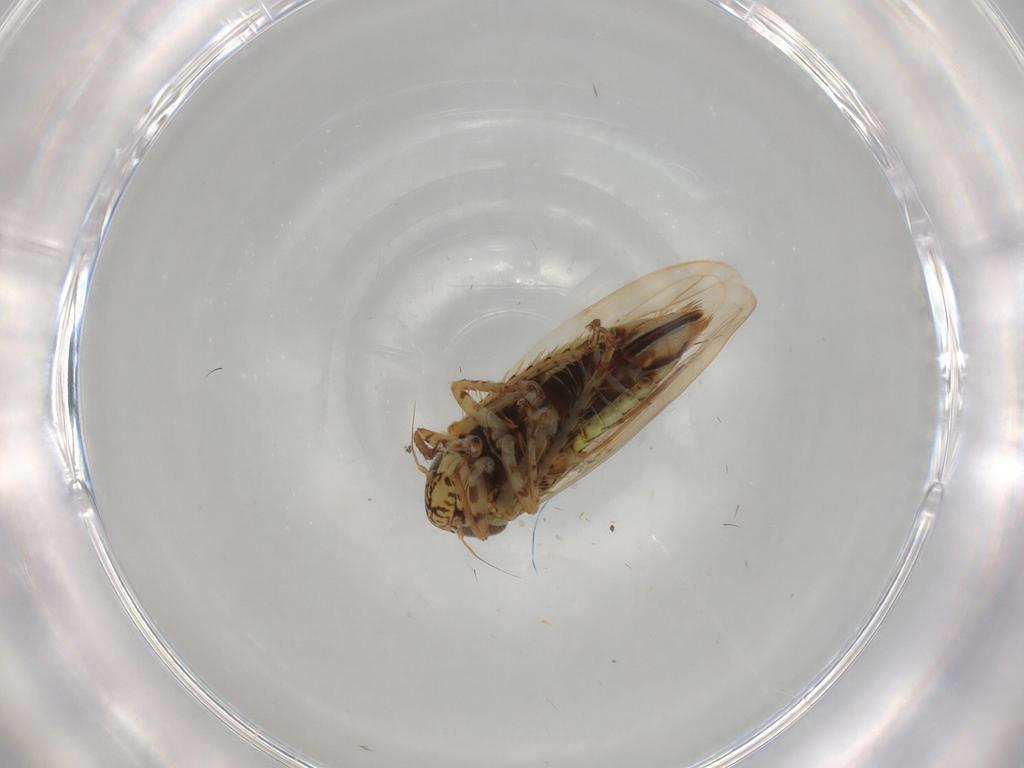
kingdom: Animalia
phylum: Arthropoda
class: Insecta
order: Hemiptera
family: Cicadellidae
